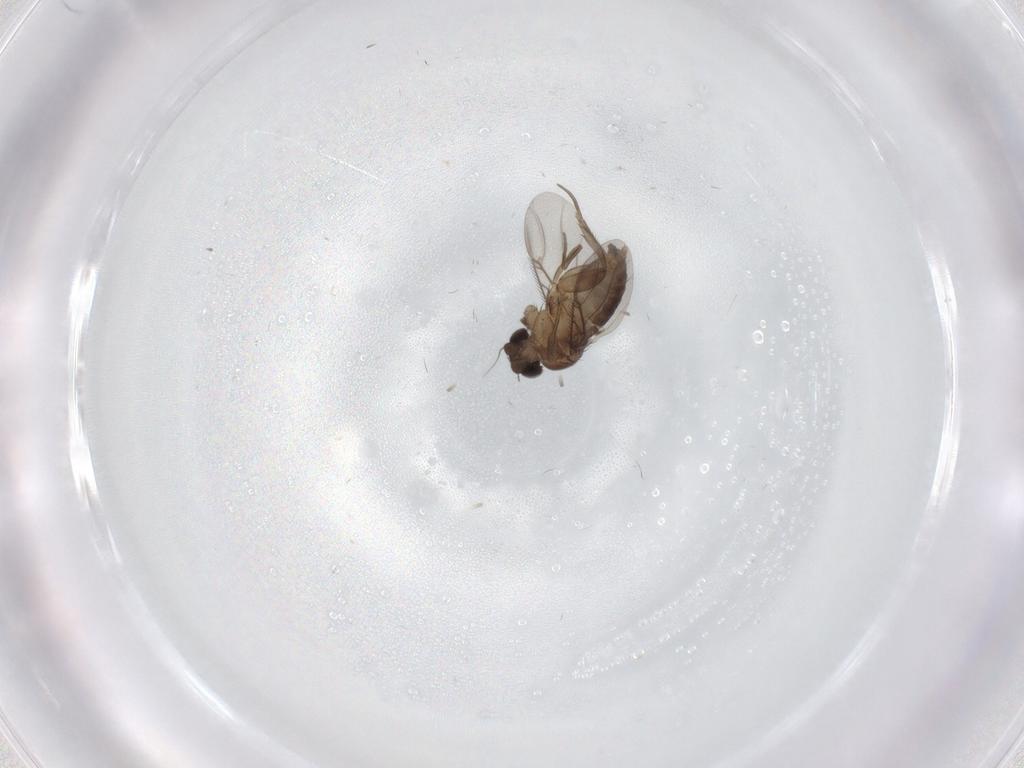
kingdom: Animalia
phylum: Arthropoda
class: Insecta
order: Diptera
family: Phoridae
